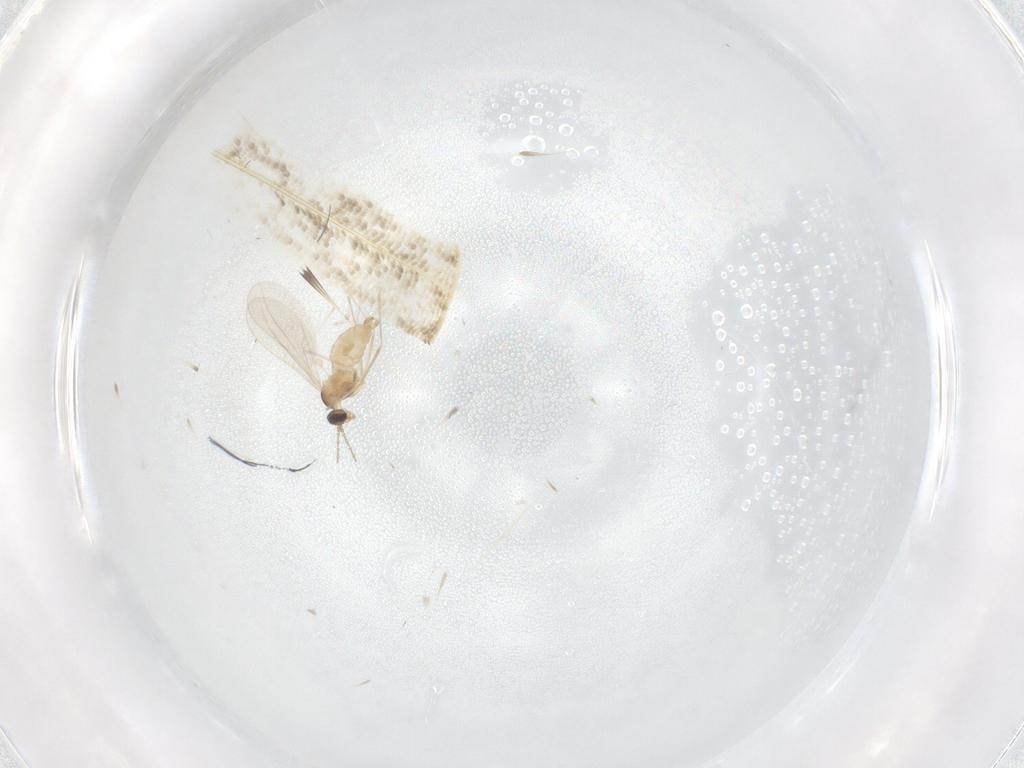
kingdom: Animalia
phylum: Arthropoda
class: Insecta
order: Diptera
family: Cecidomyiidae
